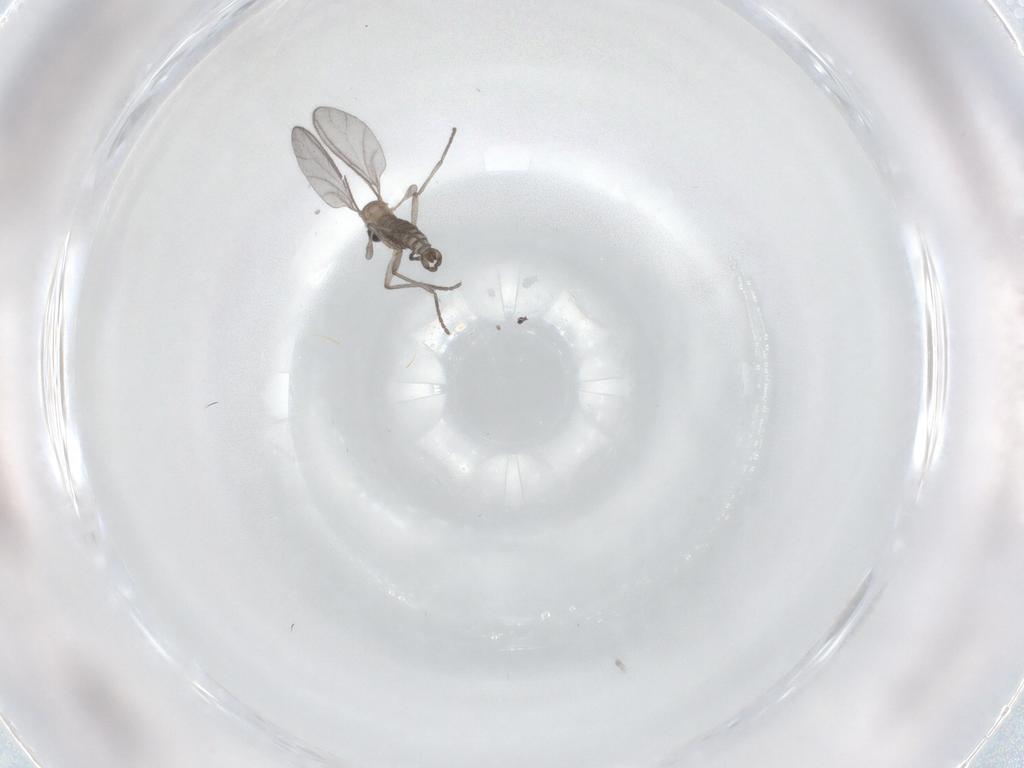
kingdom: Animalia
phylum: Arthropoda
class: Insecta
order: Diptera
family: Sciaridae
